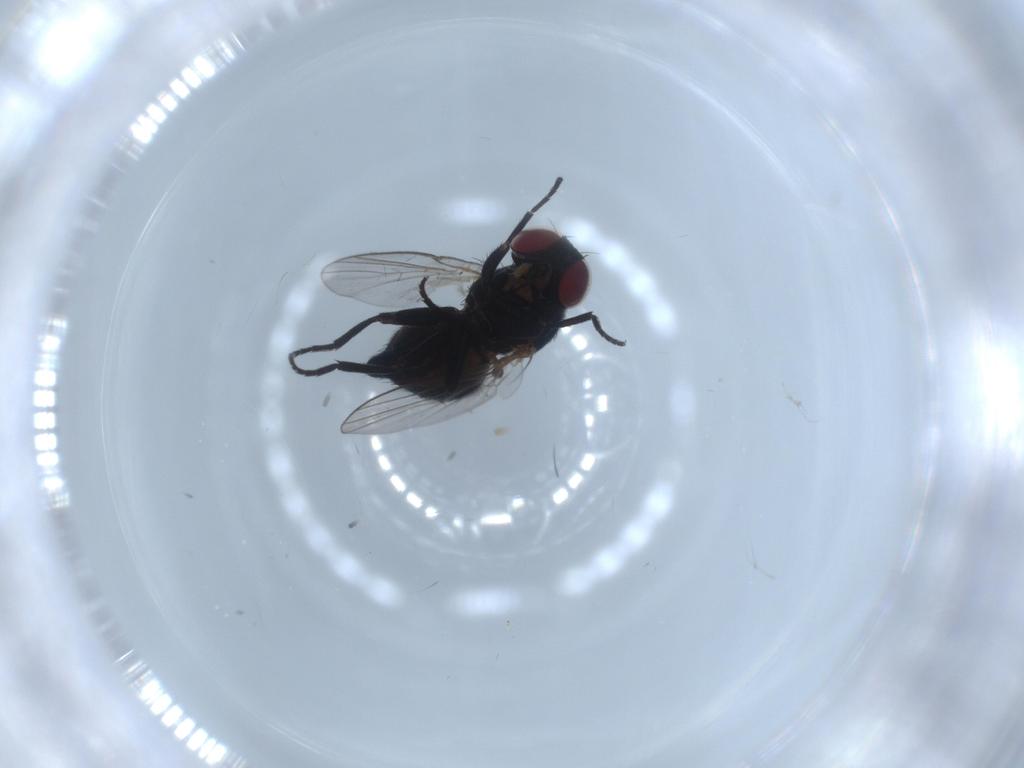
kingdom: Animalia
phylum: Arthropoda
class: Insecta
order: Diptera
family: Agromyzidae
